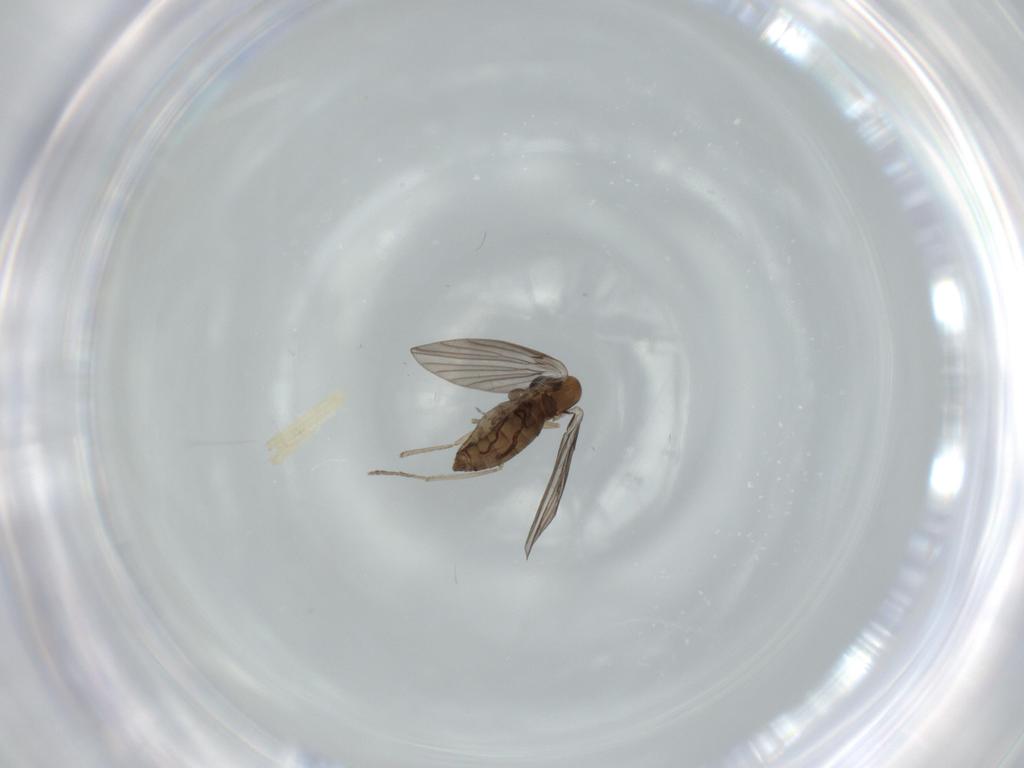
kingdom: Animalia
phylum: Arthropoda
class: Insecta
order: Diptera
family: Psychodidae
